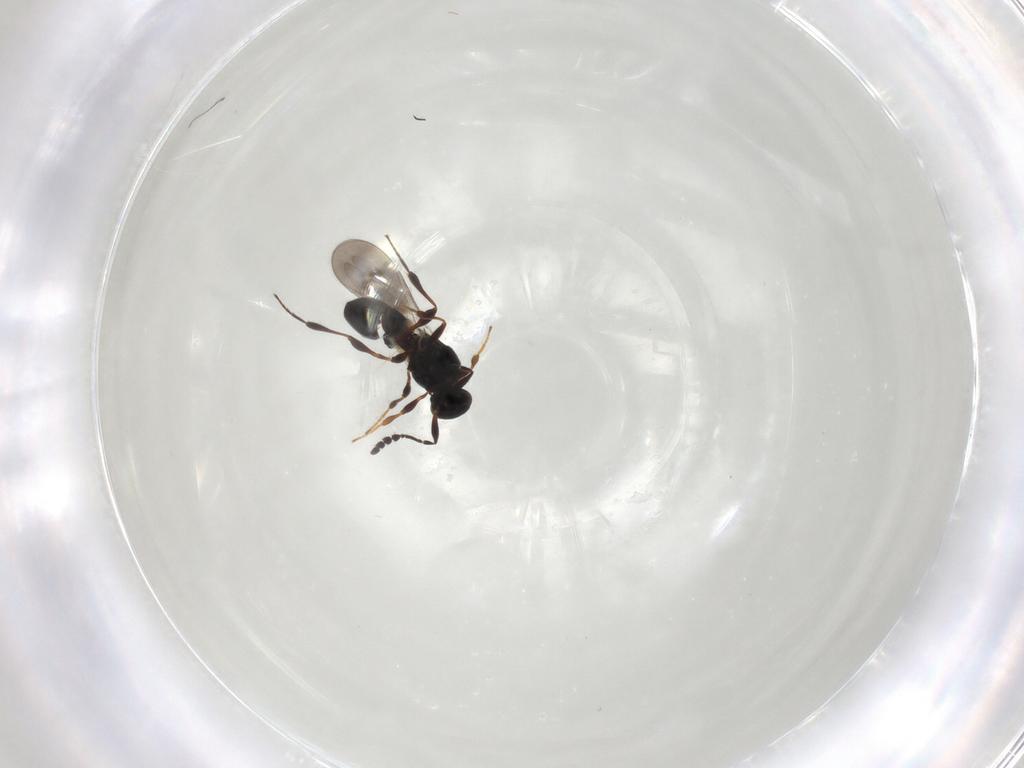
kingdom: Animalia
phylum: Arthropoda
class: Insecta
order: Hymenoptera
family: Platygastridae
